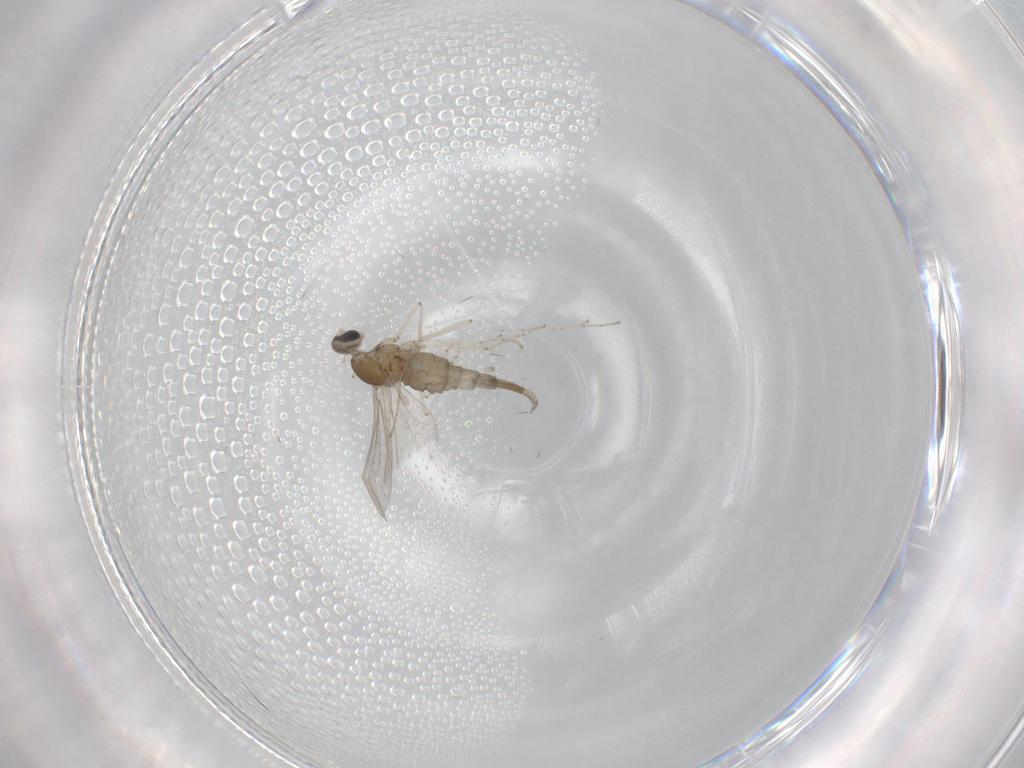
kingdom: Animalia
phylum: Arthropoda
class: Insecta
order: Diptera
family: Cecidomyiidae
